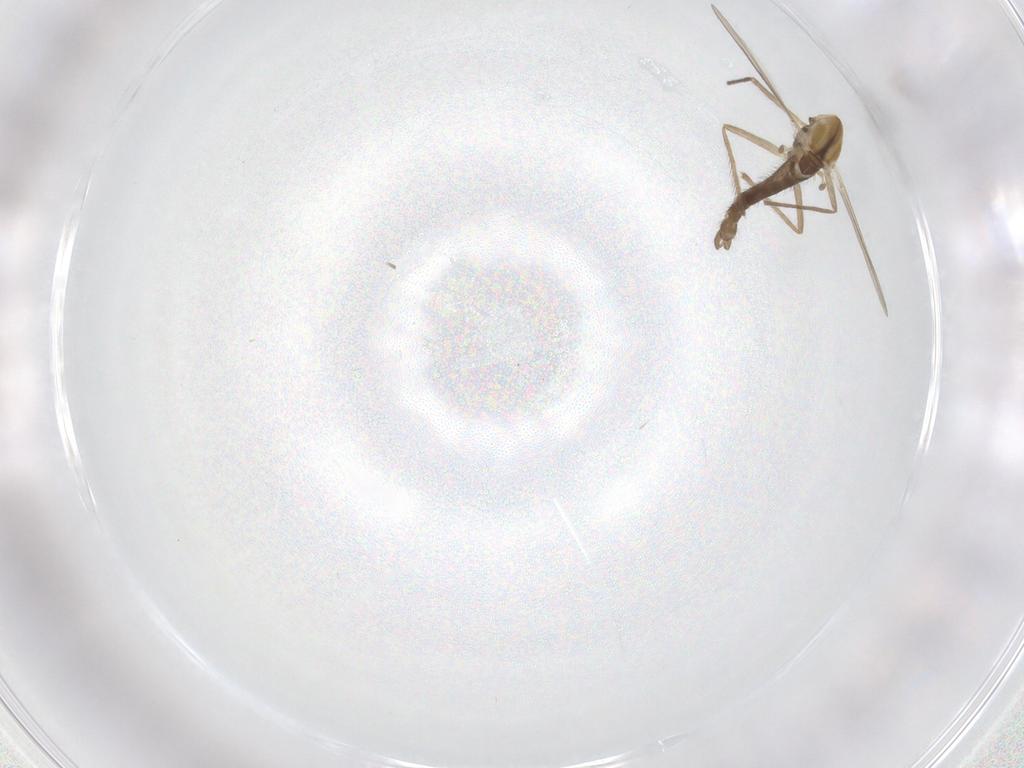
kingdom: Animalia
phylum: Arthropoda
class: Insecta
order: Diptera
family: Chironomidae
